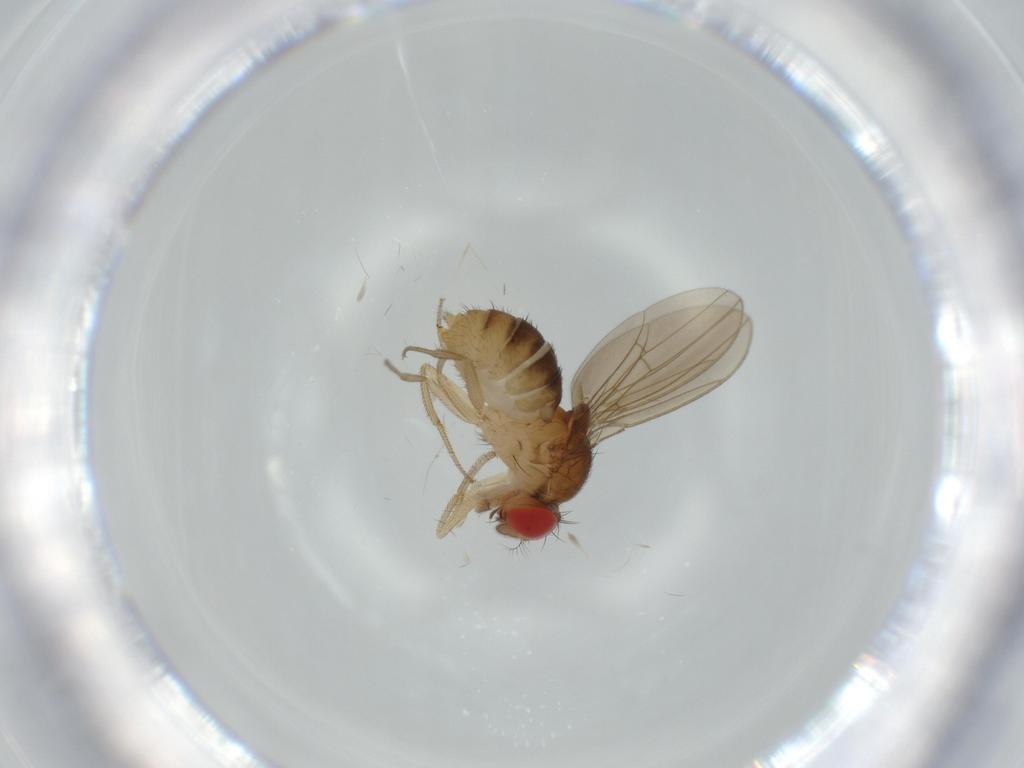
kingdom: Animalia
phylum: Arthropoda
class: Insecta
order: Diptera
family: Drosophilidae
